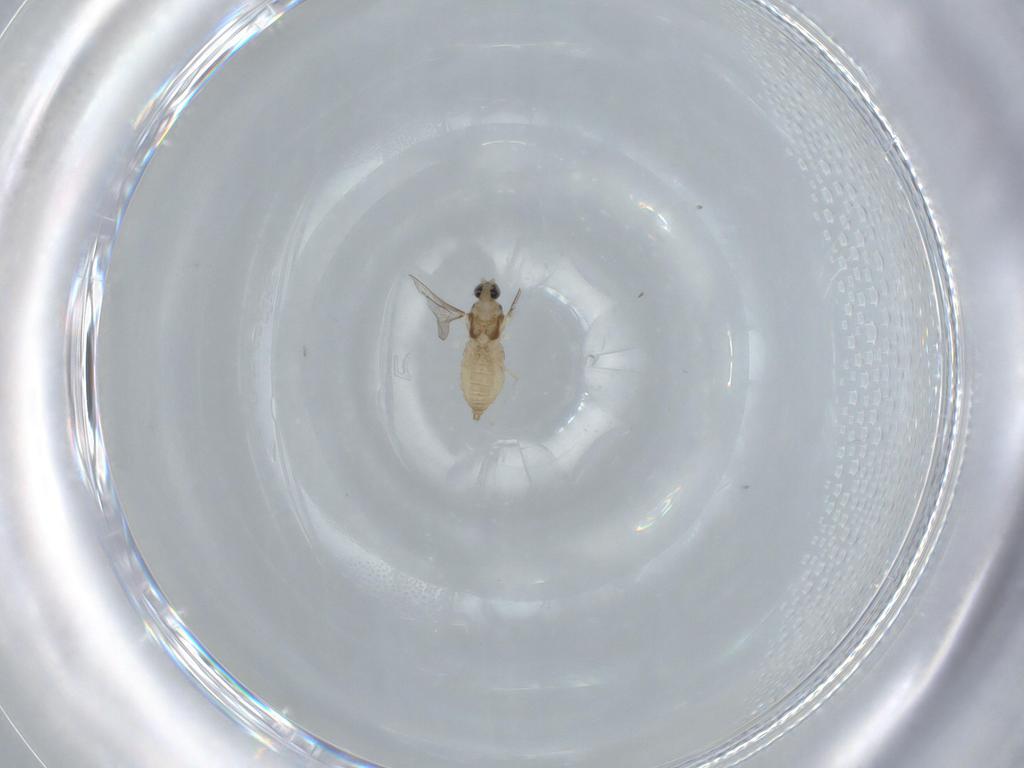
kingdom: Animalia
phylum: Arthropoda
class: Insecta
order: Diptera
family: Cecidomyiidae
